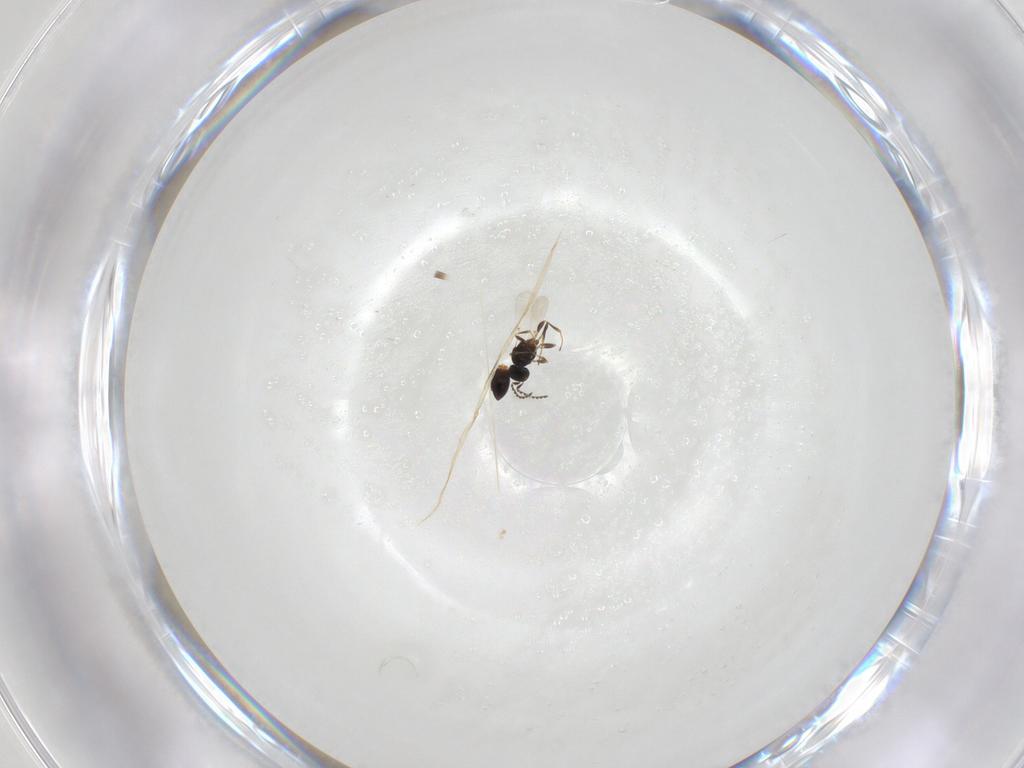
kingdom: Animalia
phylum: Arthropoda
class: Insecta
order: Hymenoptera
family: Platygastridae
